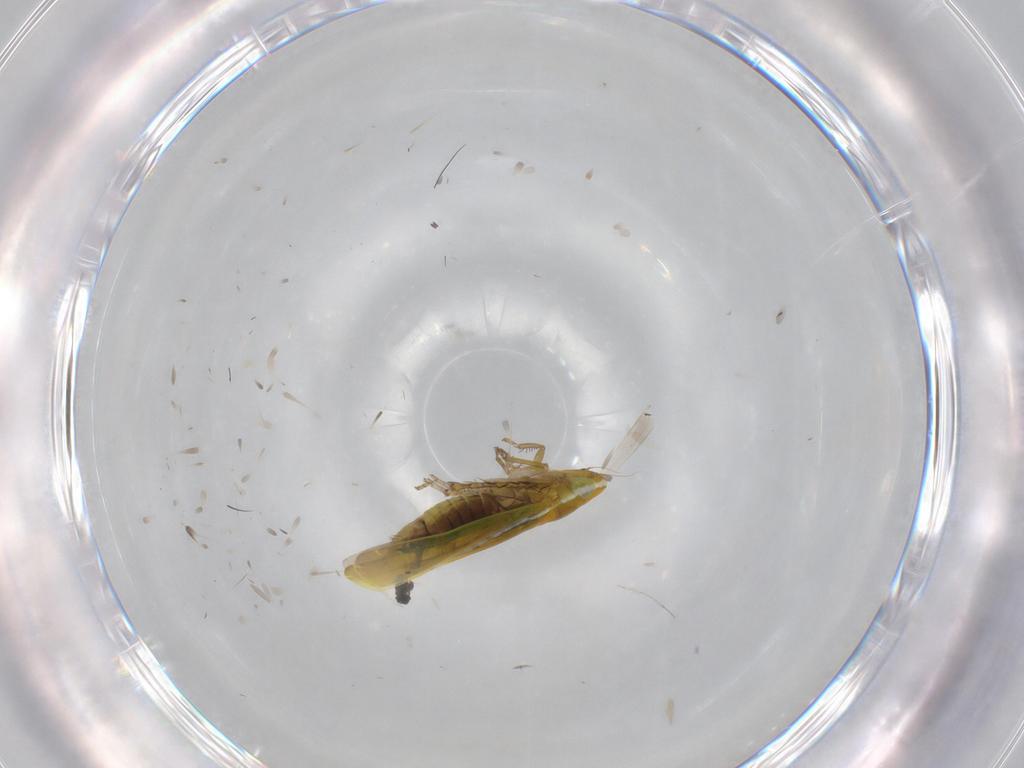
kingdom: Animalia
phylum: Arthropoda
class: Insecta
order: Hemiptera
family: Cicadellidae
